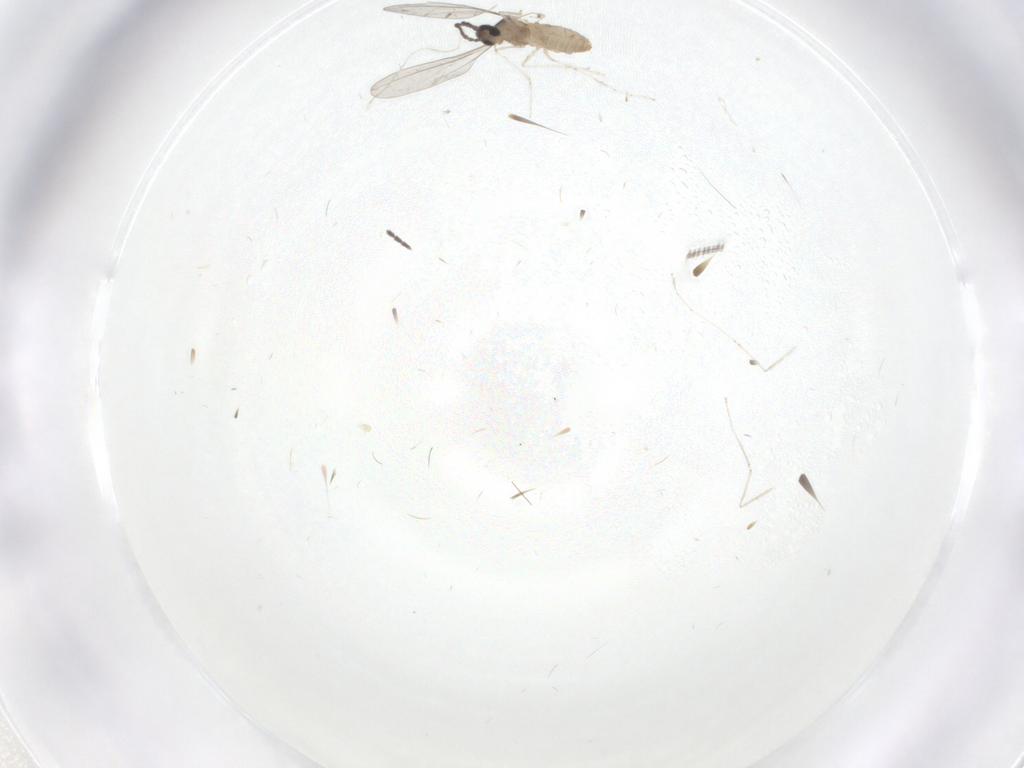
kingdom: Animalia
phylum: Arthropoda
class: Insecta
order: Diptera
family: Cecidomyiidae
